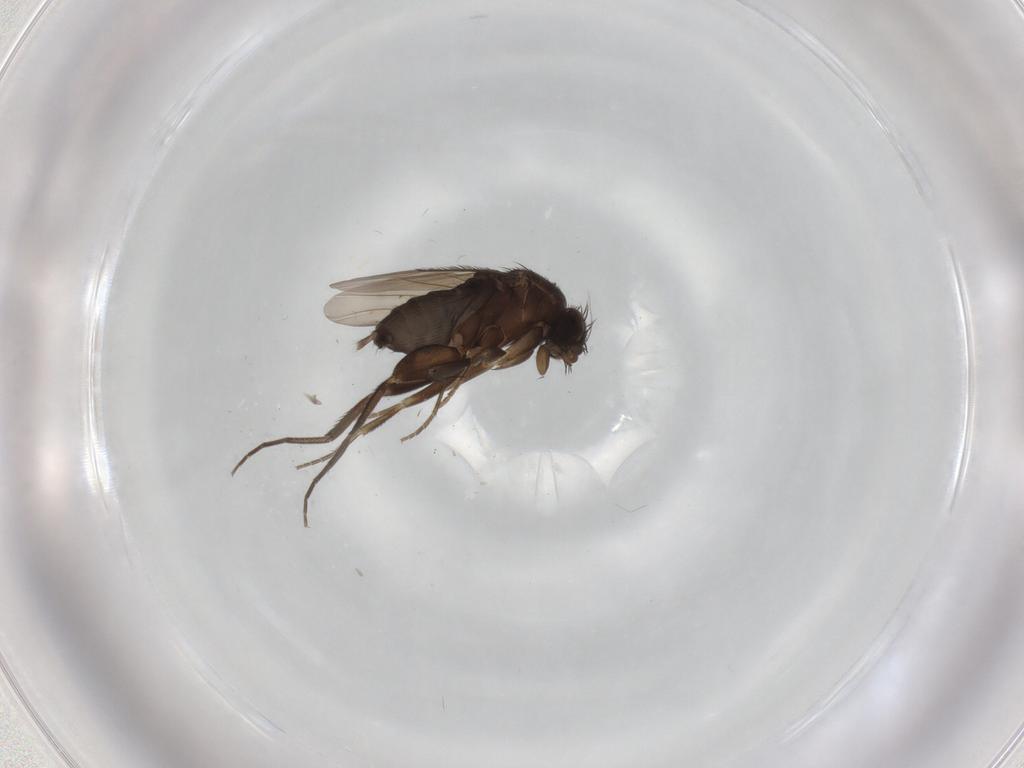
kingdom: Animalia
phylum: Arthropoda
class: Insecta
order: Diptera
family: Phoridae
